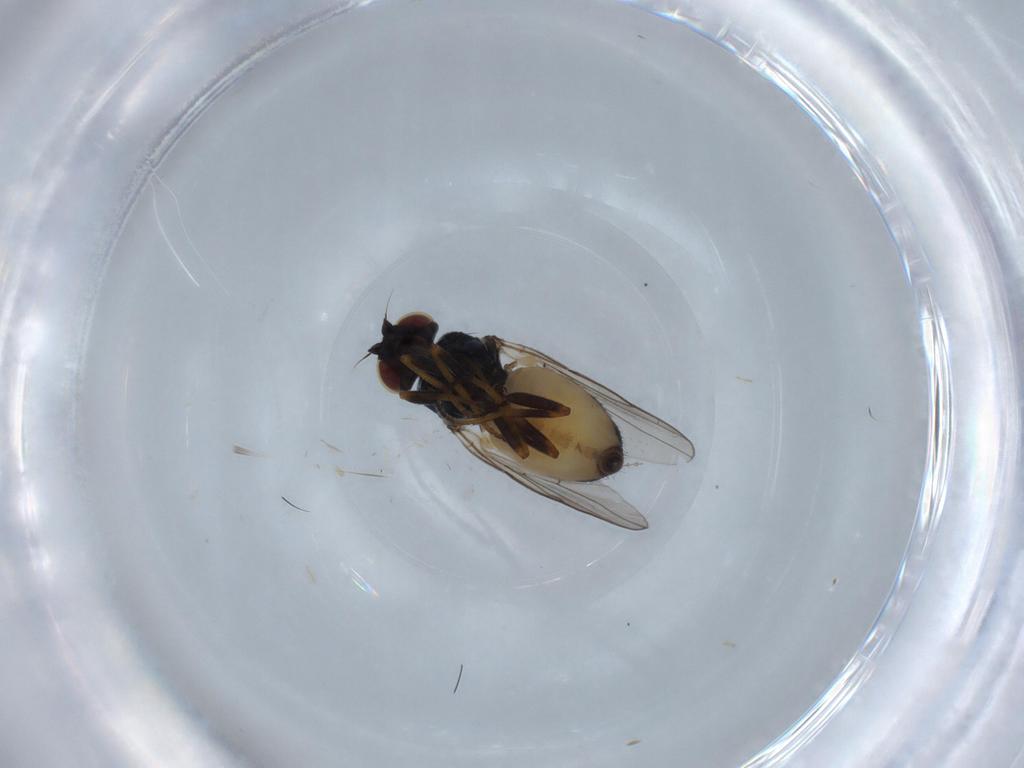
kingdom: Animalia
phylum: Arthropoda
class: Insecta
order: Diptera
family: Chloropidae
